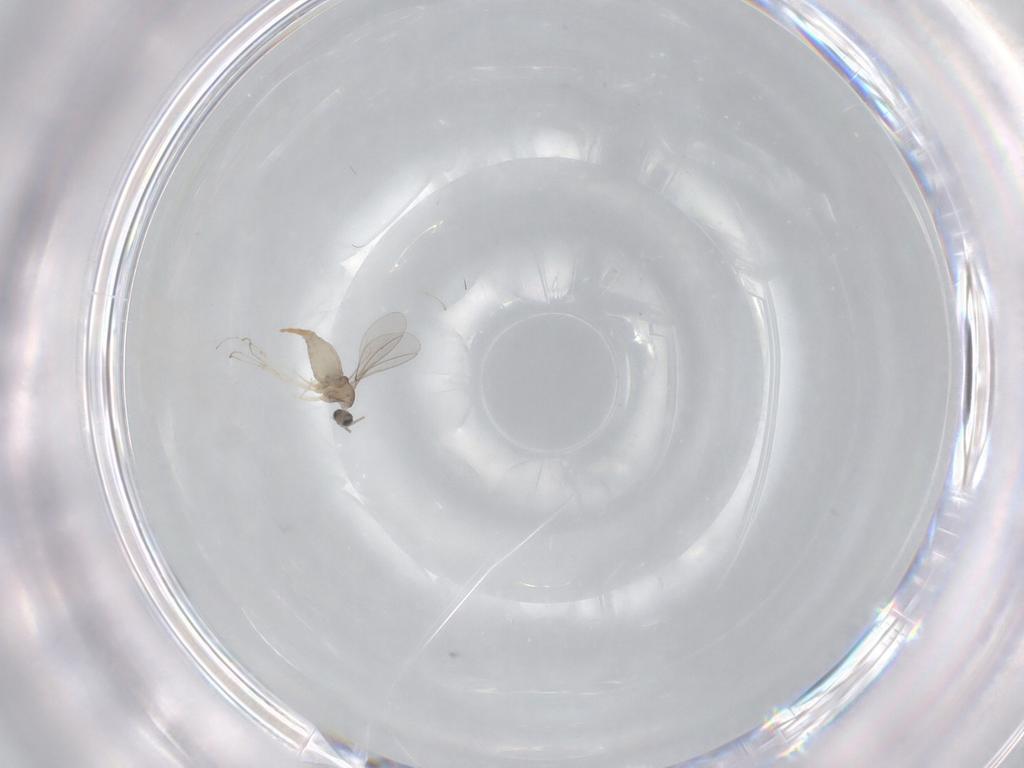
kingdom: Animalia
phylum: Arthropoda
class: Insecta
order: Diptera
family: Cecidomyiidae
